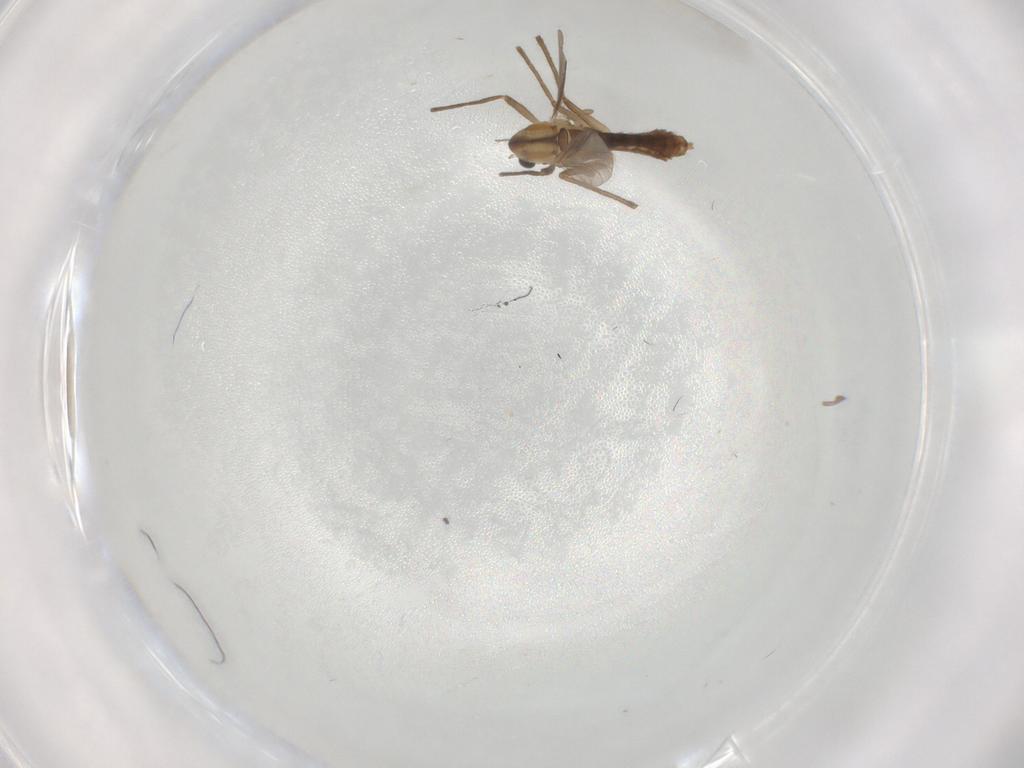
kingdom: Animalia
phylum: Arthropoda
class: Insecta
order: Diptera
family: Chironomidae
